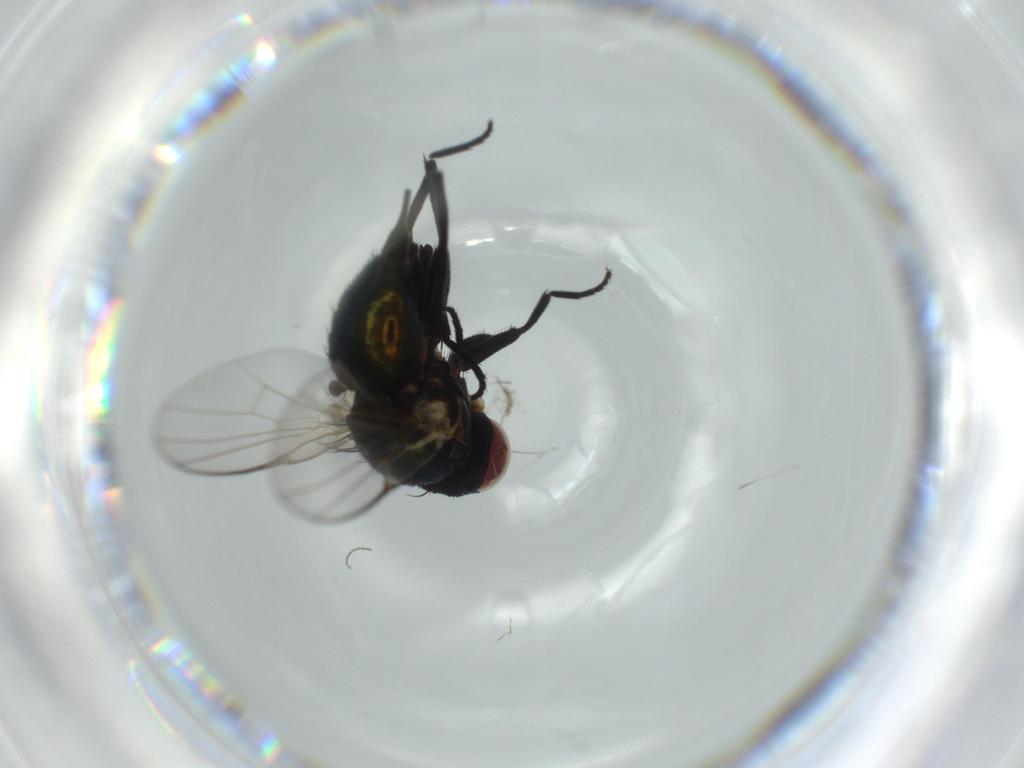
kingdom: Animalia
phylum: Arthropoda
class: Insecta
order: Diptera
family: Agromyzidae
